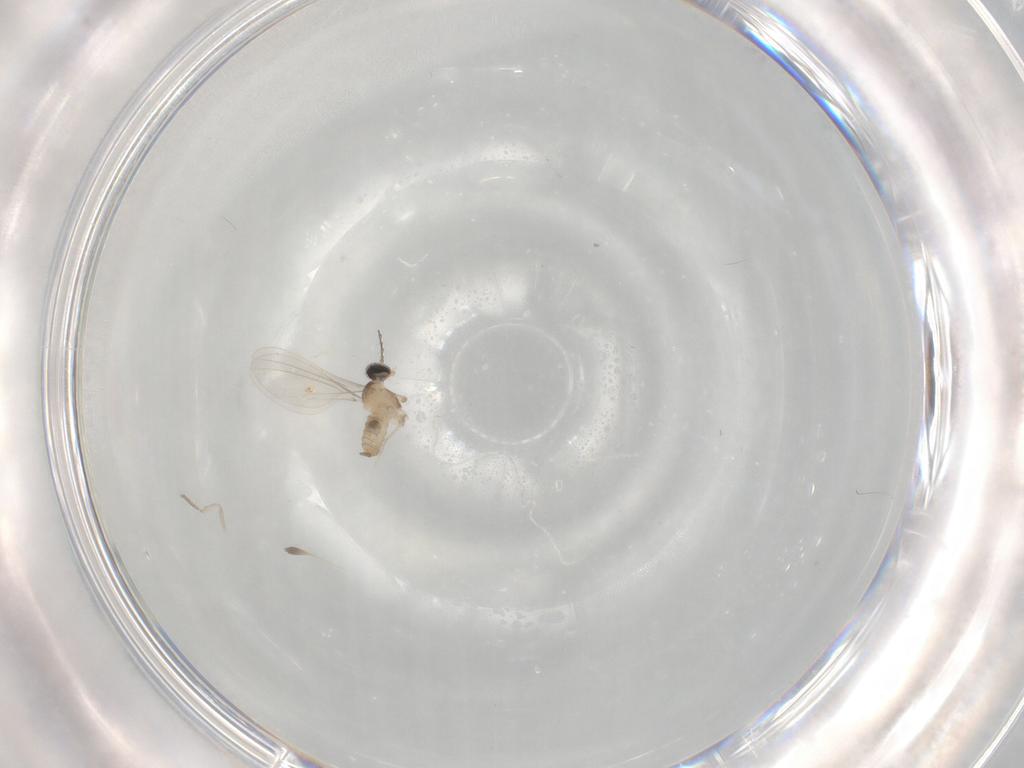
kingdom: Animalia
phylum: Arthropoda
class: Insecta
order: Diptera
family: Cecidomyiidae
